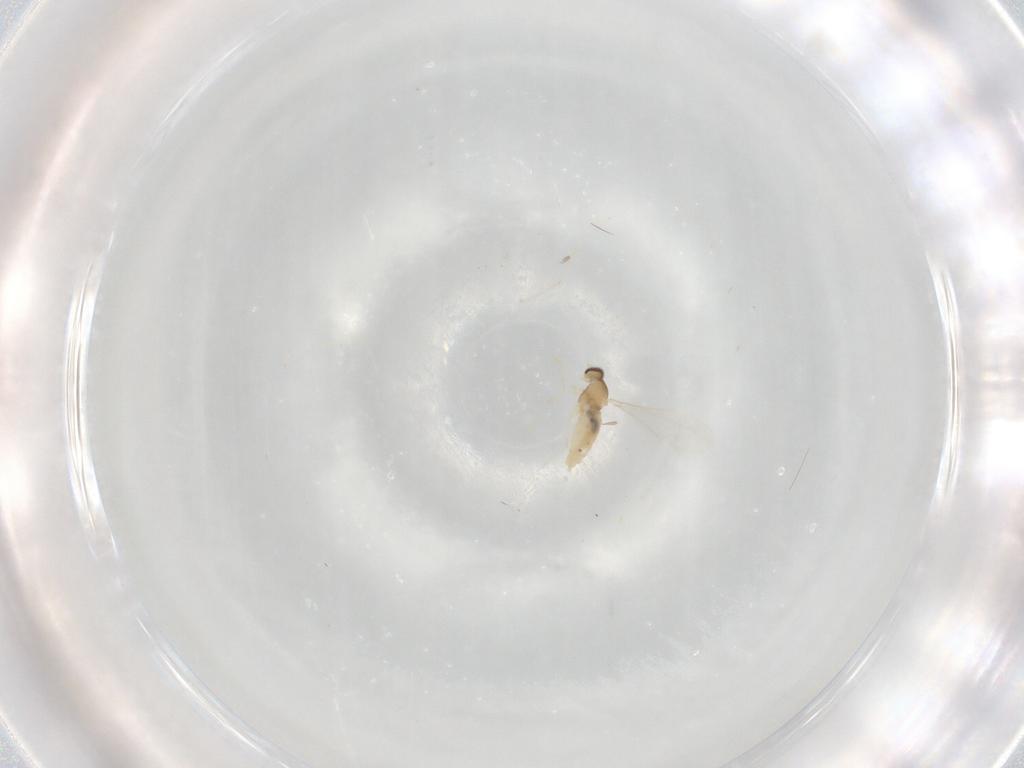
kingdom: Animalia
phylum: Arthropoda
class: Insecta
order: Diptera
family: Cecidomyiidae
